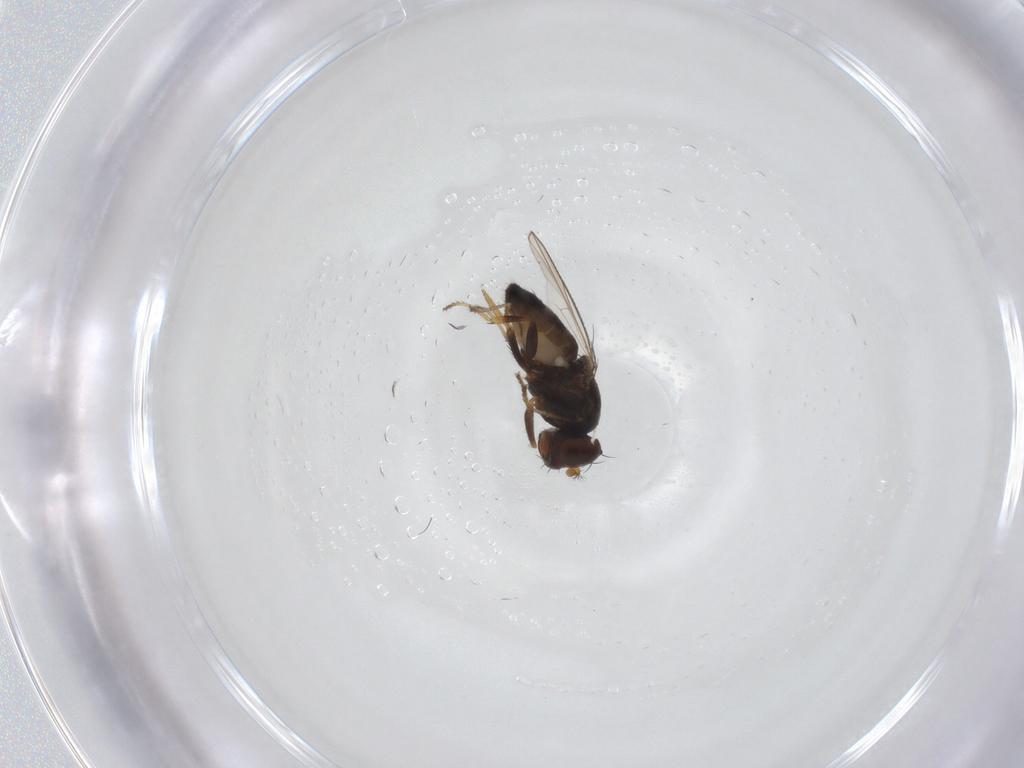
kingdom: Animalia
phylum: Arthropoda
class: Insecta
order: Diptera
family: Ephydridae
